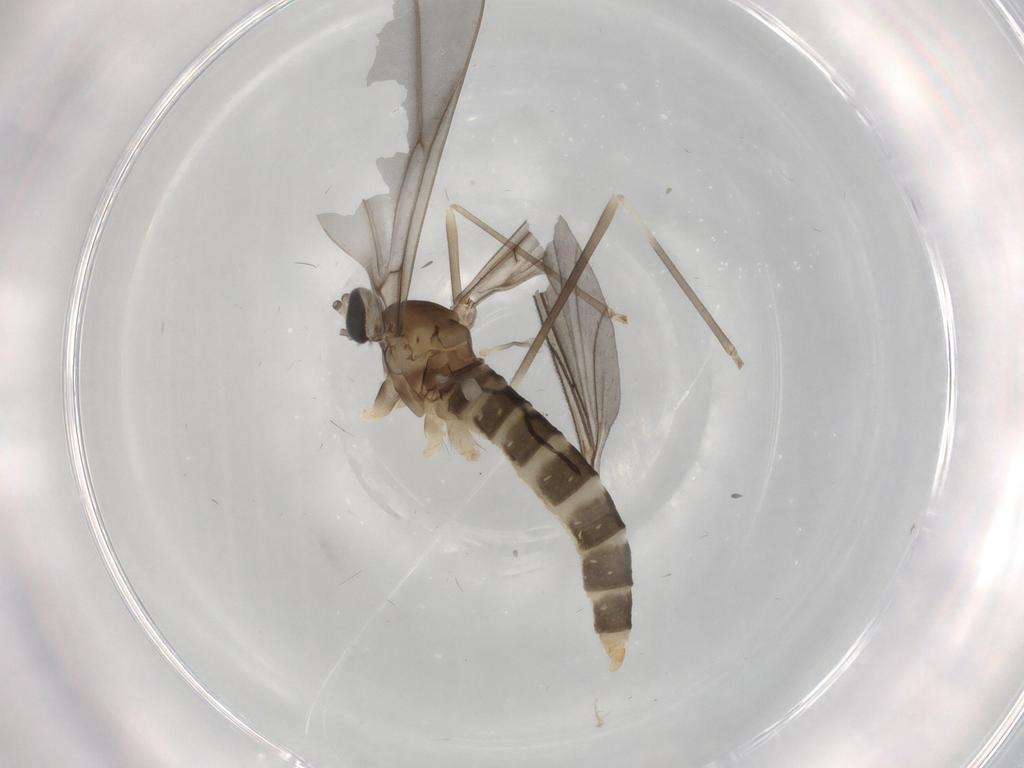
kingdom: Animalia
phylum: Arthropoda
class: Insecta
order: Diptera
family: Cecidomyiidae
